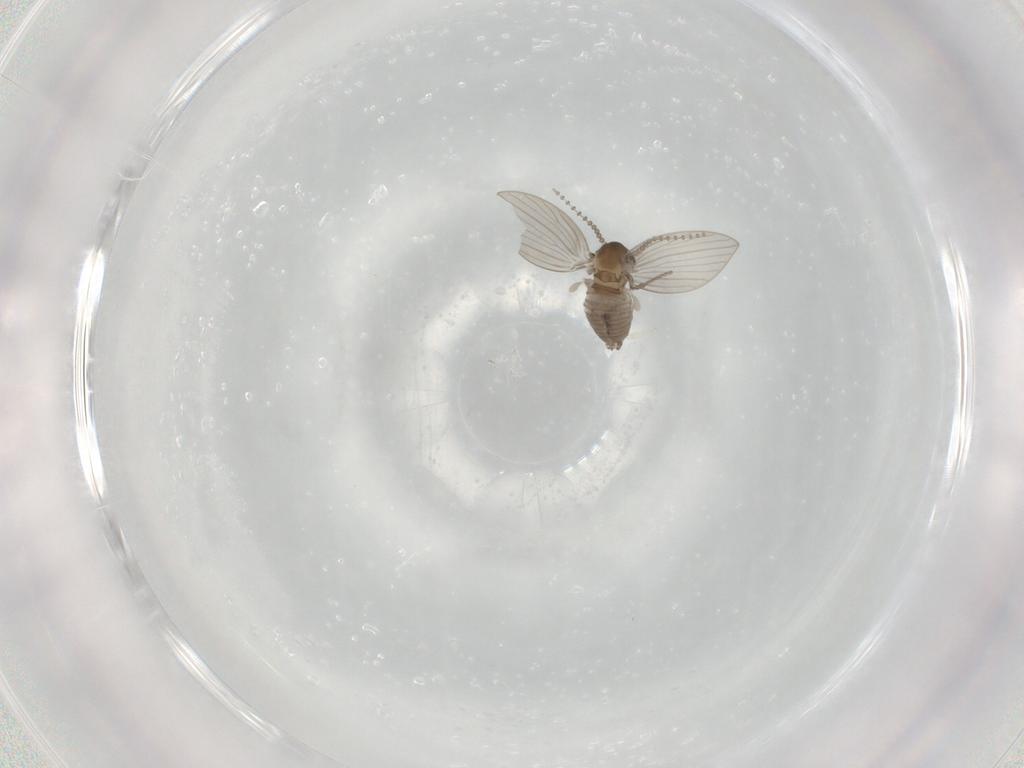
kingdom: Animalia
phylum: Arthropoda
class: Insecta
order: Diptera
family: Psychodidae
